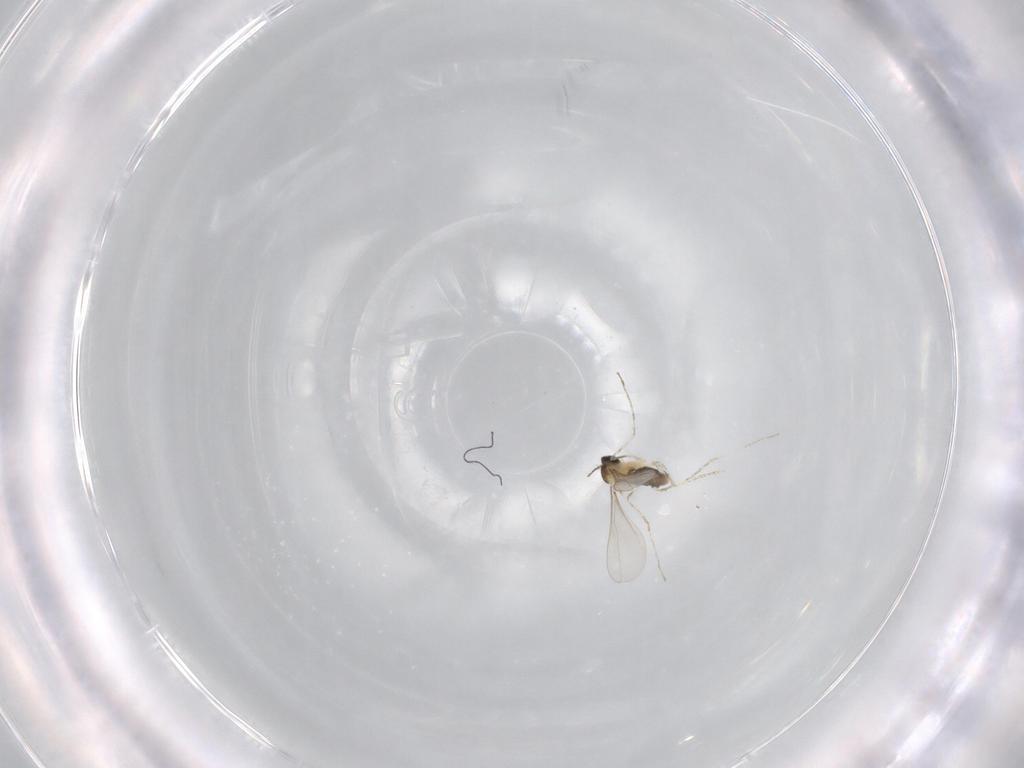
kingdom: Animalia
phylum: Arthropoda
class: Insecta
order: Diptera
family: Cecidomyiidae
